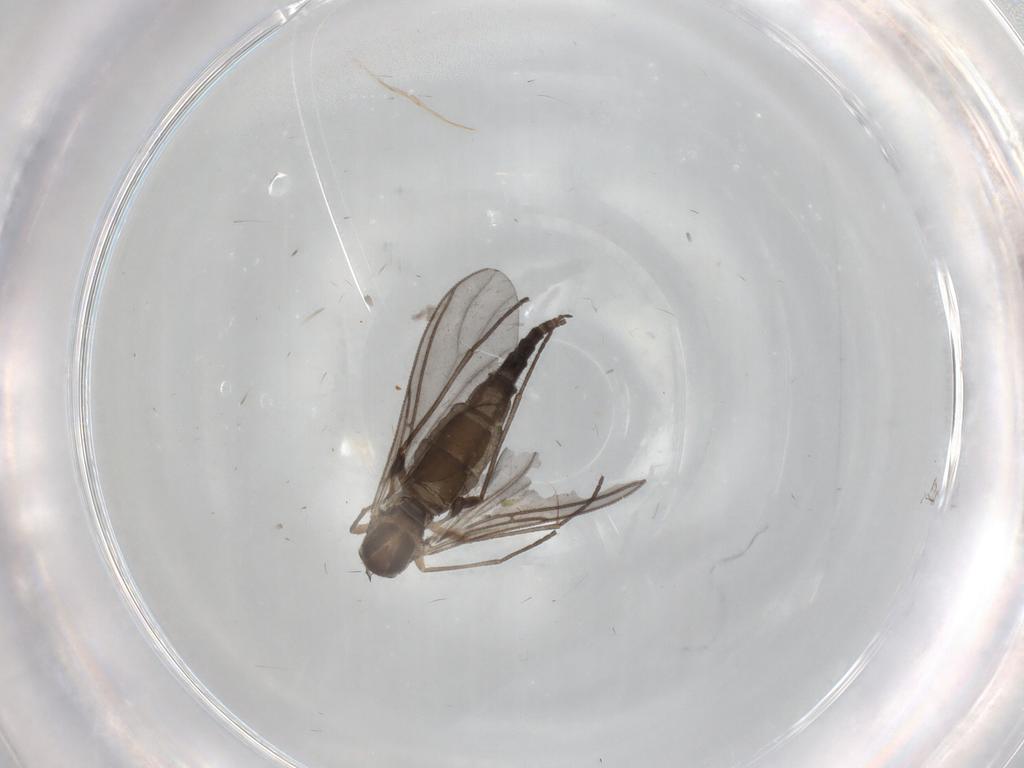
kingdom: Animalia
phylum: Arthropoda
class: Insecta
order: Diptera
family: Sciaridae
